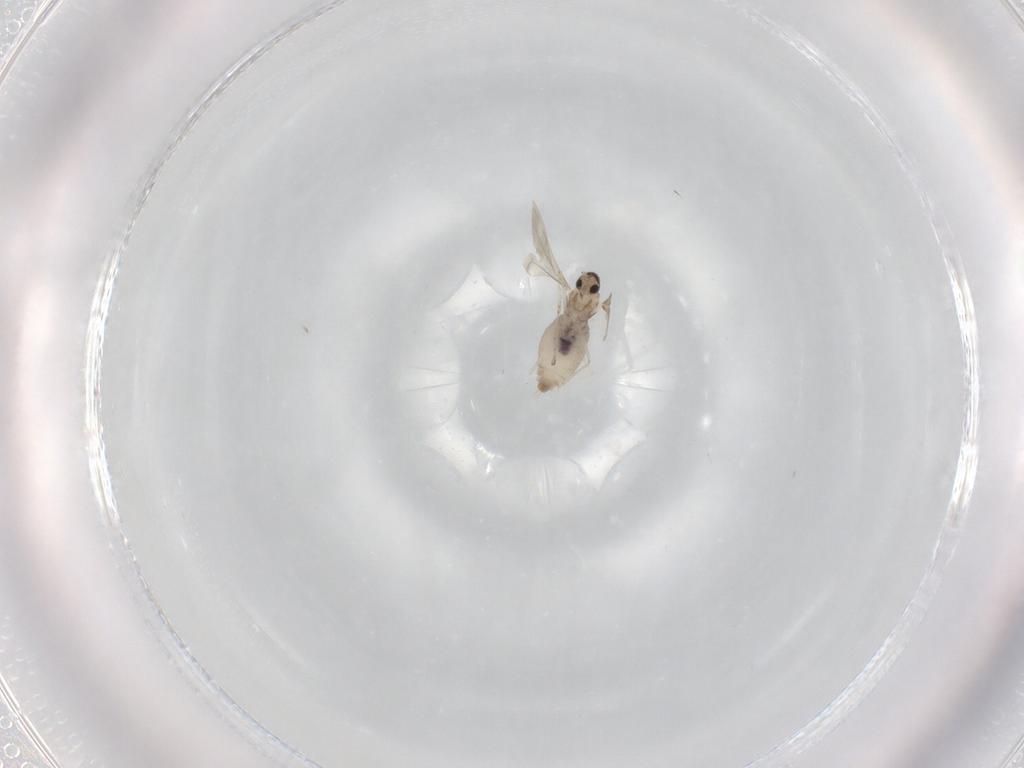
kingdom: Animalia
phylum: Arthropoda
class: Insecta
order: Diptera
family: Ceratopogonidae
